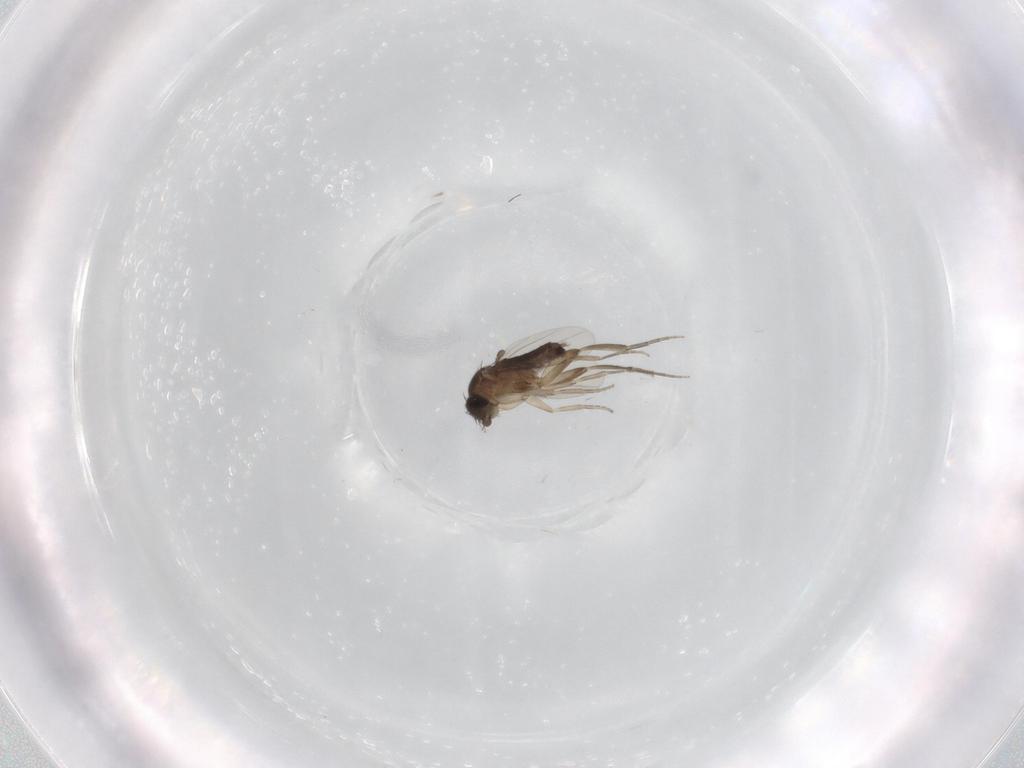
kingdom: Animalia
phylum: Arthropoda
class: Insecta
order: Diptera
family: Phoridae
